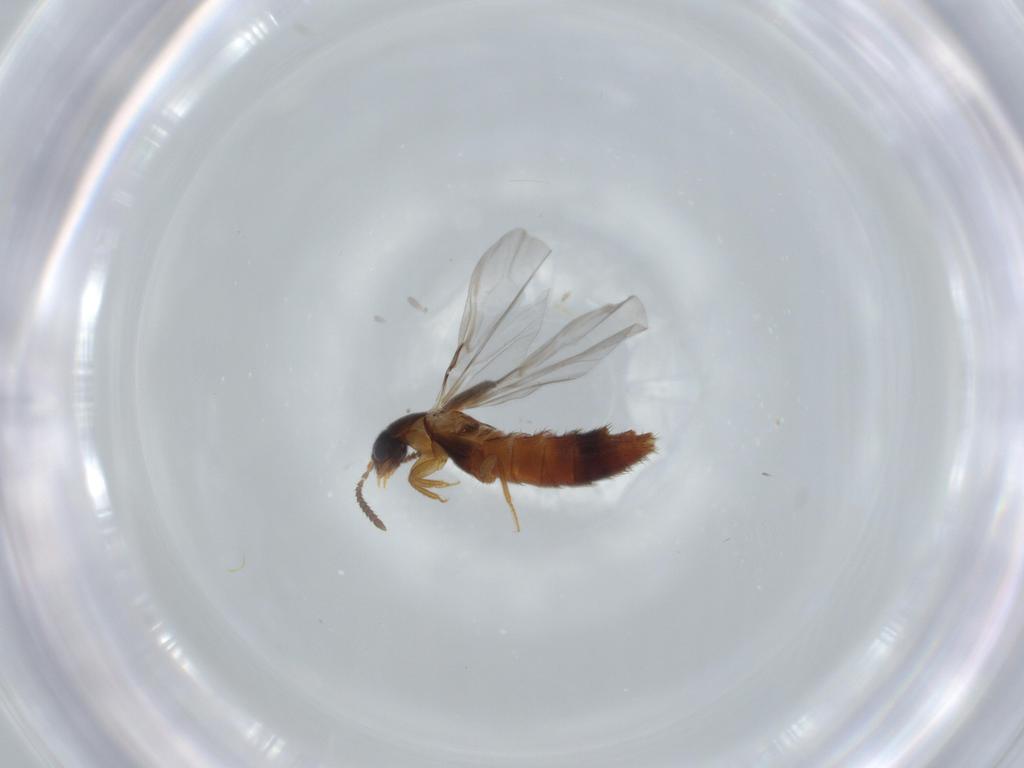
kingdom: Animalia
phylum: Arthropoda
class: Insecta
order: Coleoptera
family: Staphylinidae
